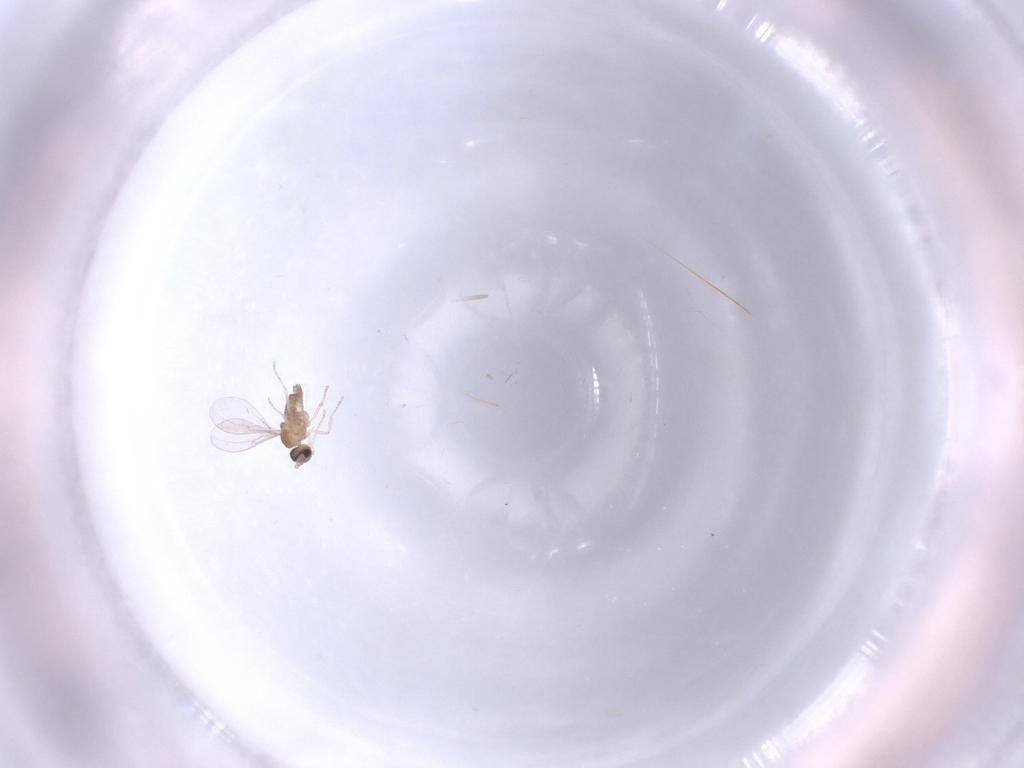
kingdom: Animalia
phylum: Arthropoda
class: Insecta
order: Diptera
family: Cecidomyiidae
